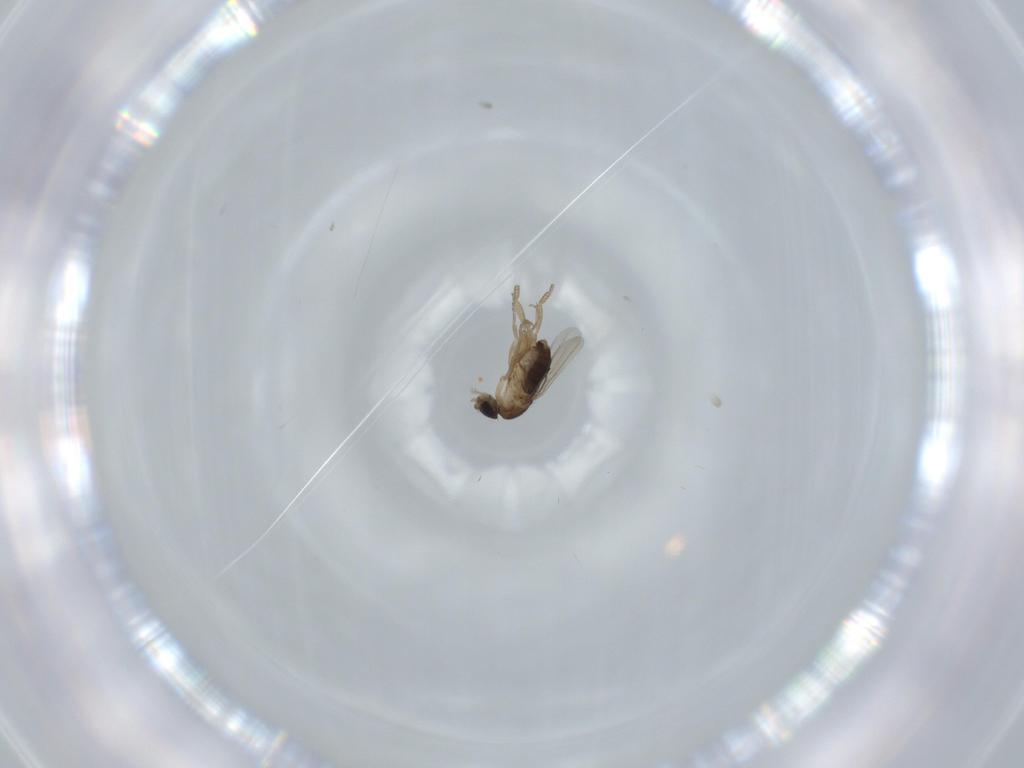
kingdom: Animalia
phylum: Arthropoda
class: Insecta
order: Diptera
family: Phoridae
